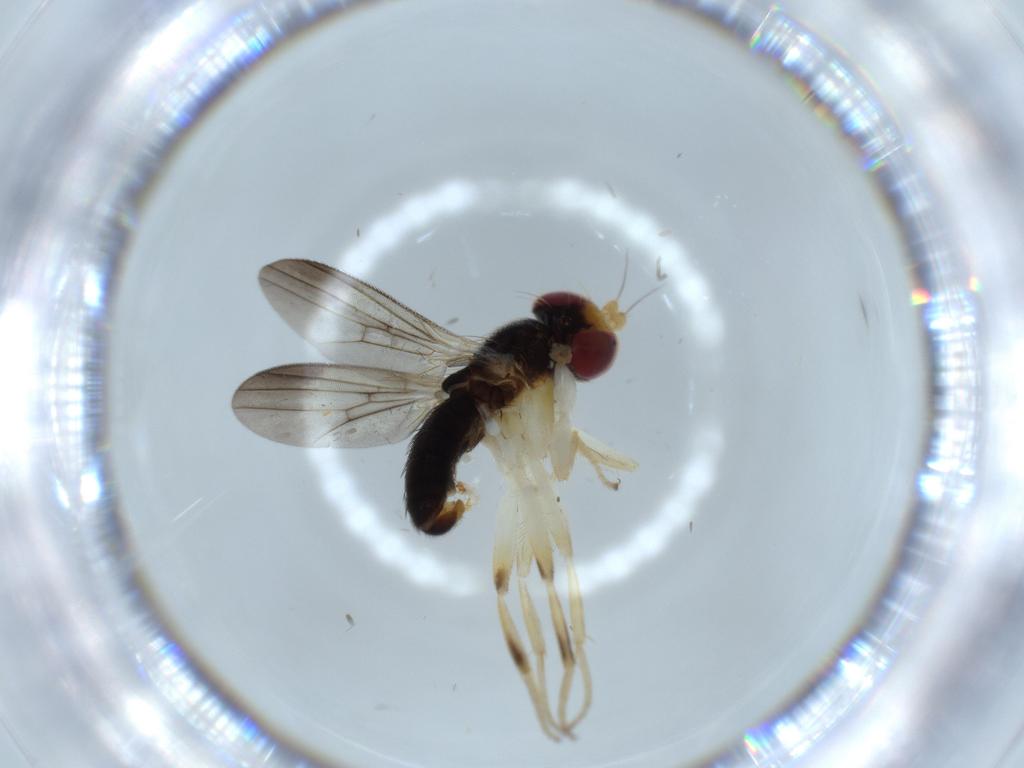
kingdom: Animalia
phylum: Arthropoda
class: Insecta
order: Diptera
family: Clusiidae
